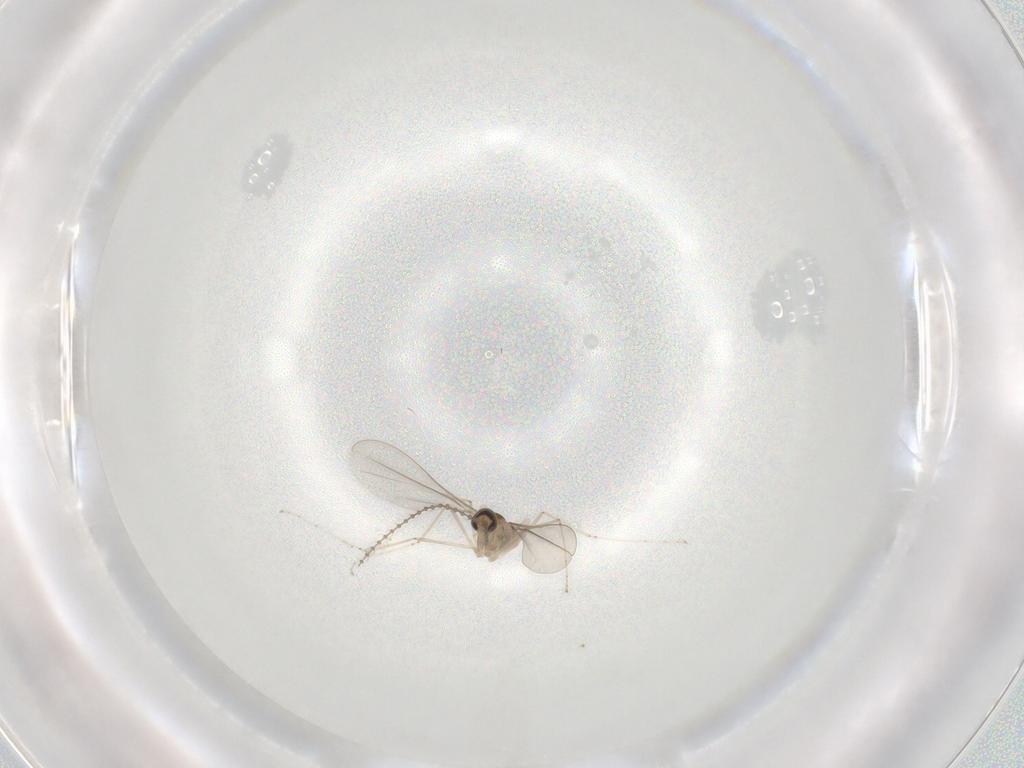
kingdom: Animalia
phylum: Arthropoda
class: Insecta
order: Diptera
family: Cecidomyiidae
